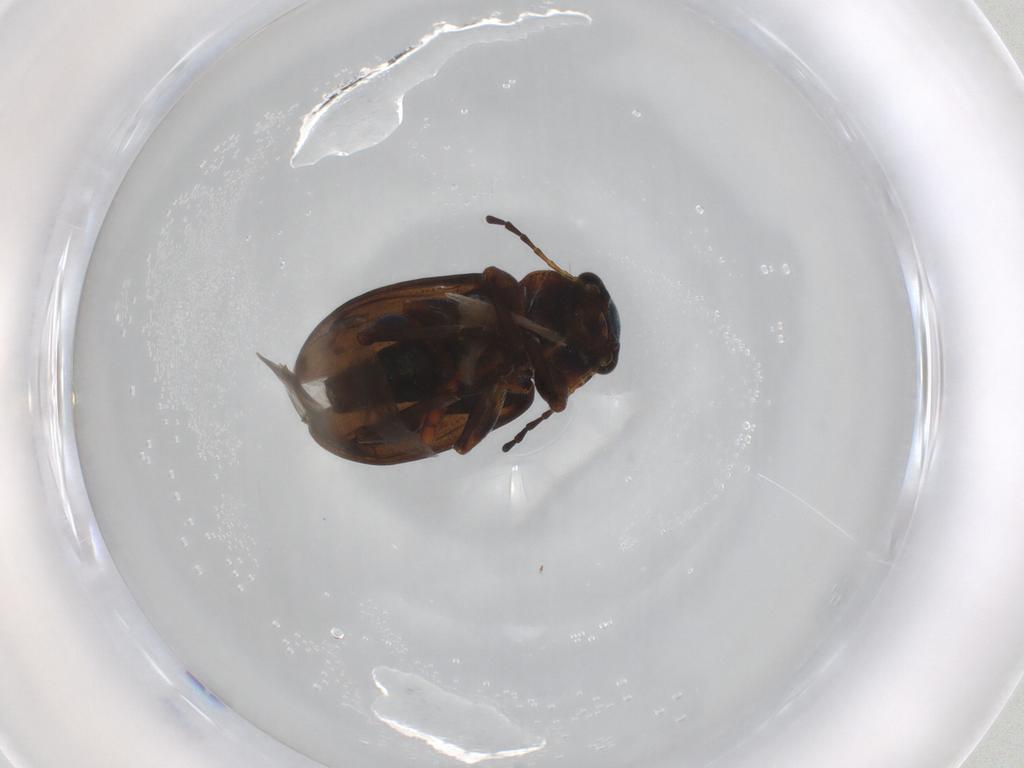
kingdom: Animalia
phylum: Arthropoda
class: Insecta
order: Coleoptera
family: Chrysomelidae
